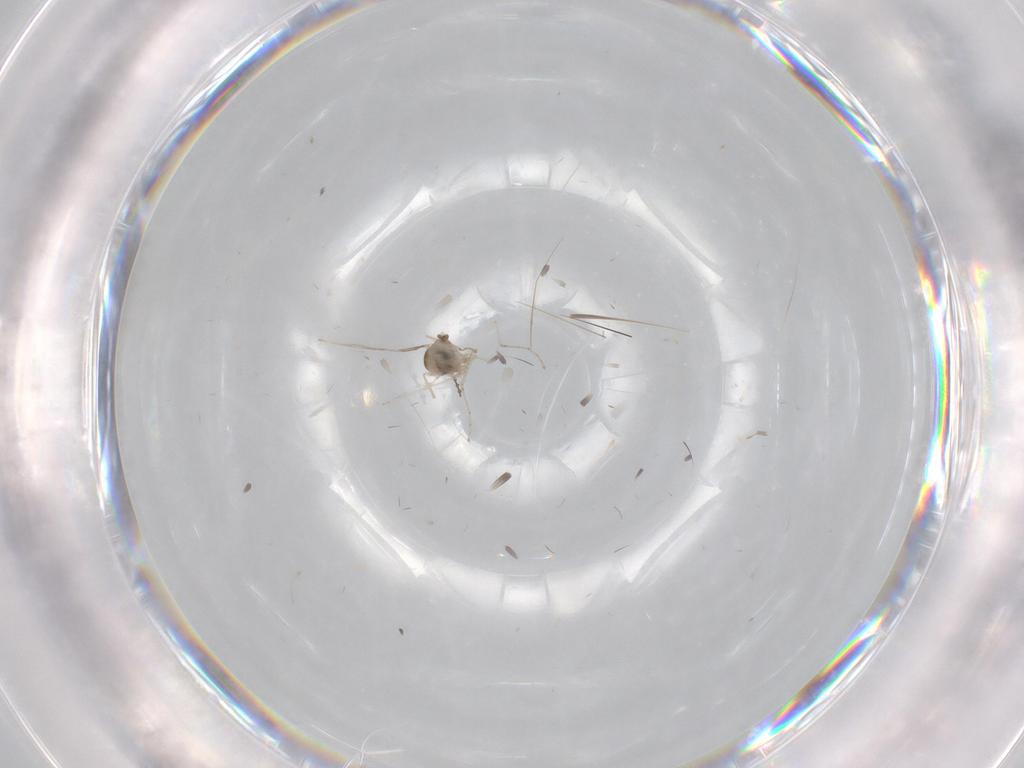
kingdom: Animalia
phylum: Arthropoda
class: Insecta
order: Diptera
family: Cecidomyiidae
